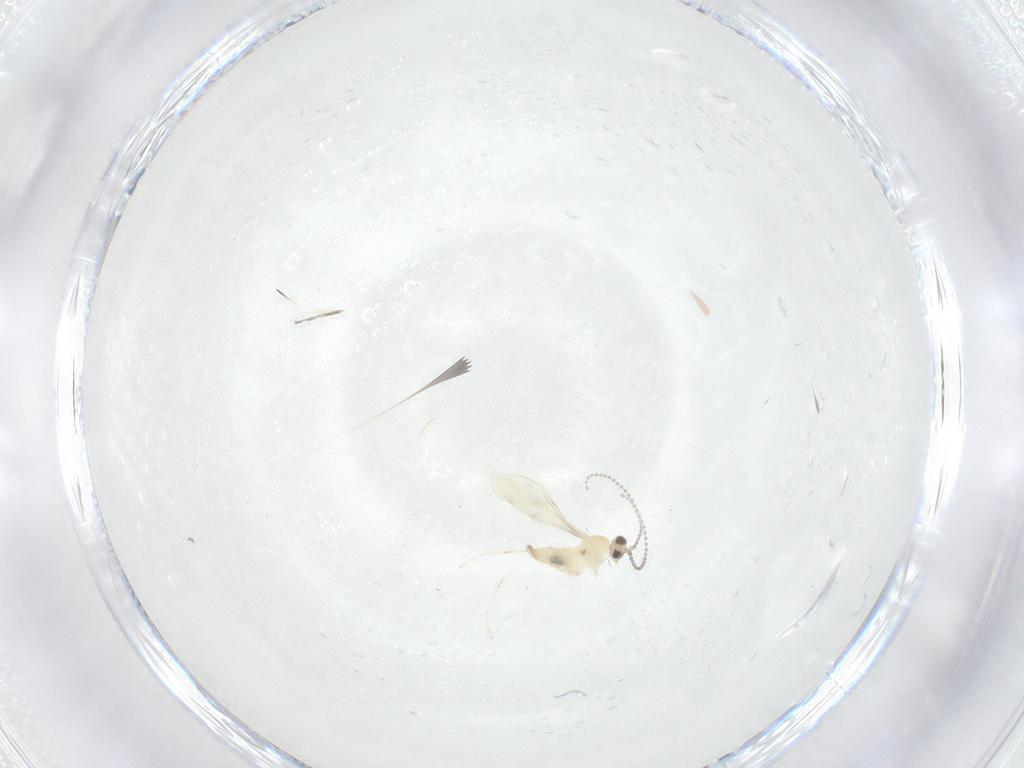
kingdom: Animalia
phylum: Arthropoda
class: Insecta
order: Diptera
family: Cecidomyiidae
